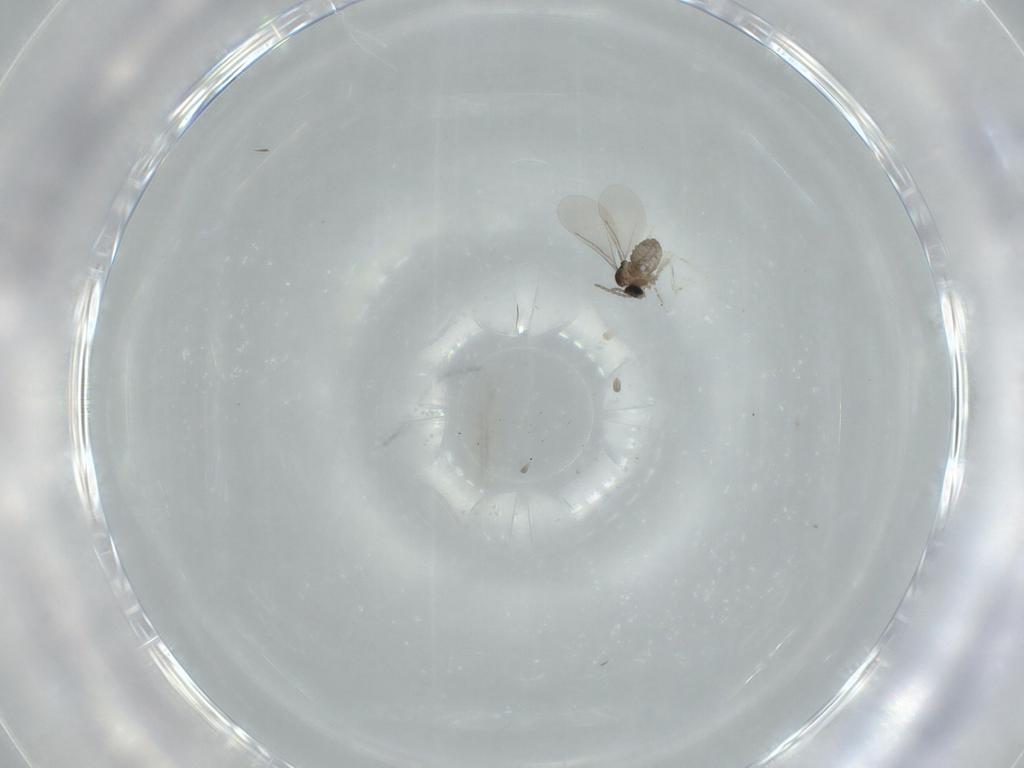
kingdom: Animalia
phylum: Arthropoda
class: Insecta
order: Diptera
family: Cecidomyiidae
